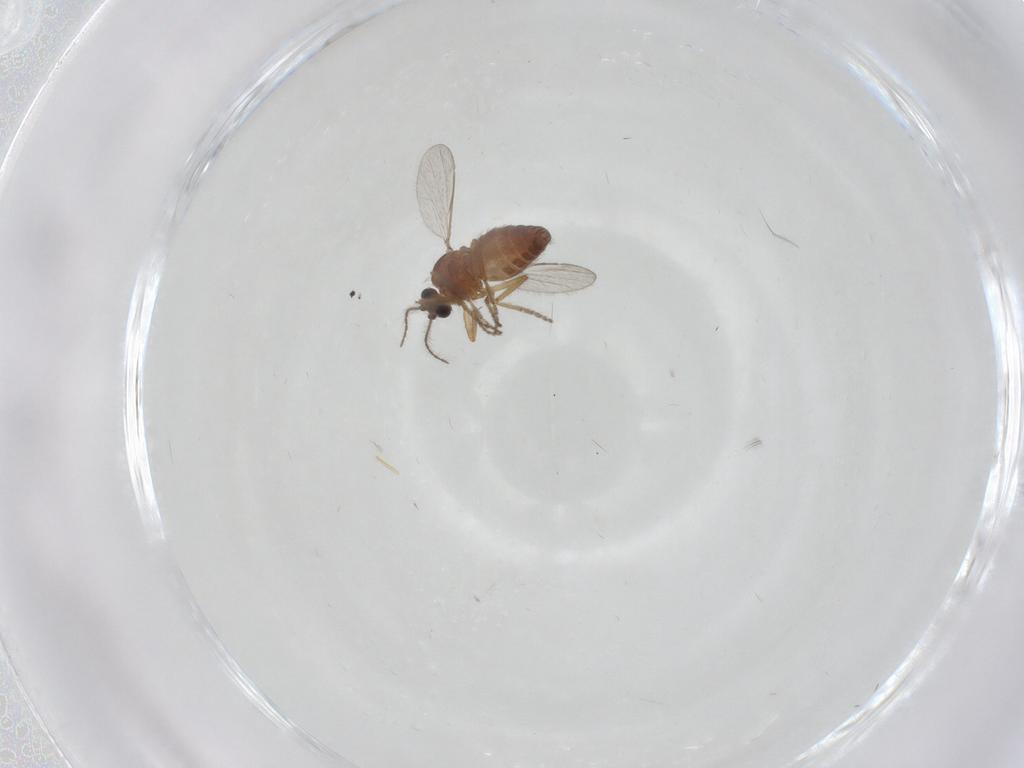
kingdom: Animalia
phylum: Arthropoda
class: Insecta
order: Diptera
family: Ceratopogonidae
